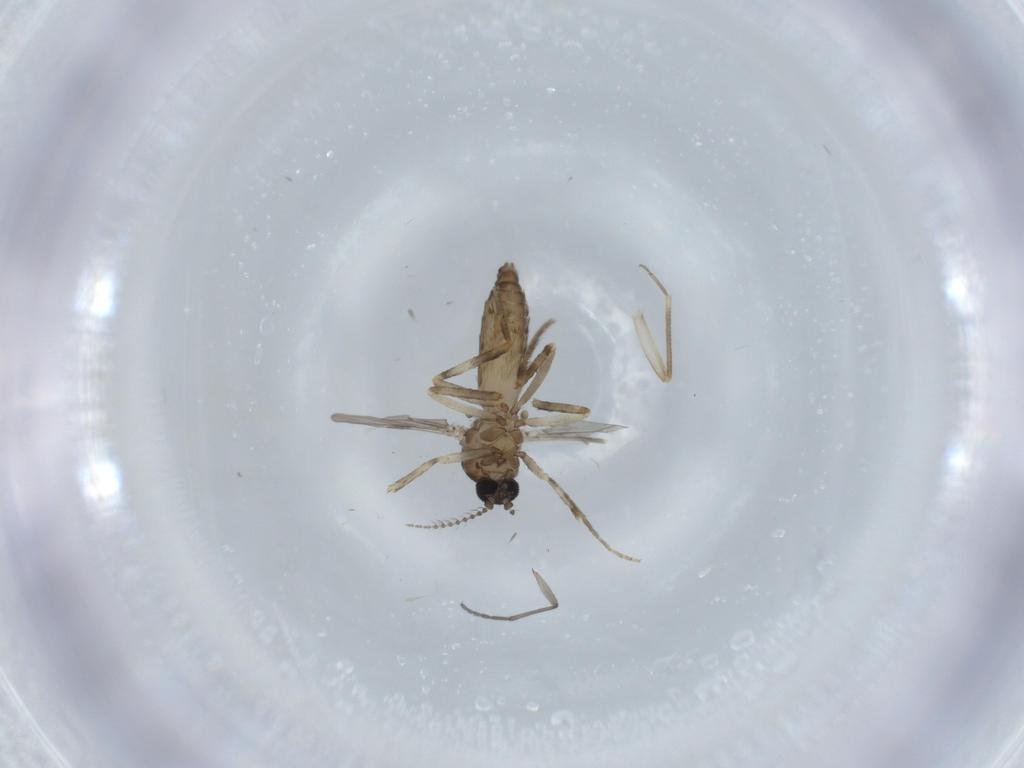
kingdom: Animalia
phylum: Arthropoda
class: Insecta
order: Diptera
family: Ceratopogonidae
